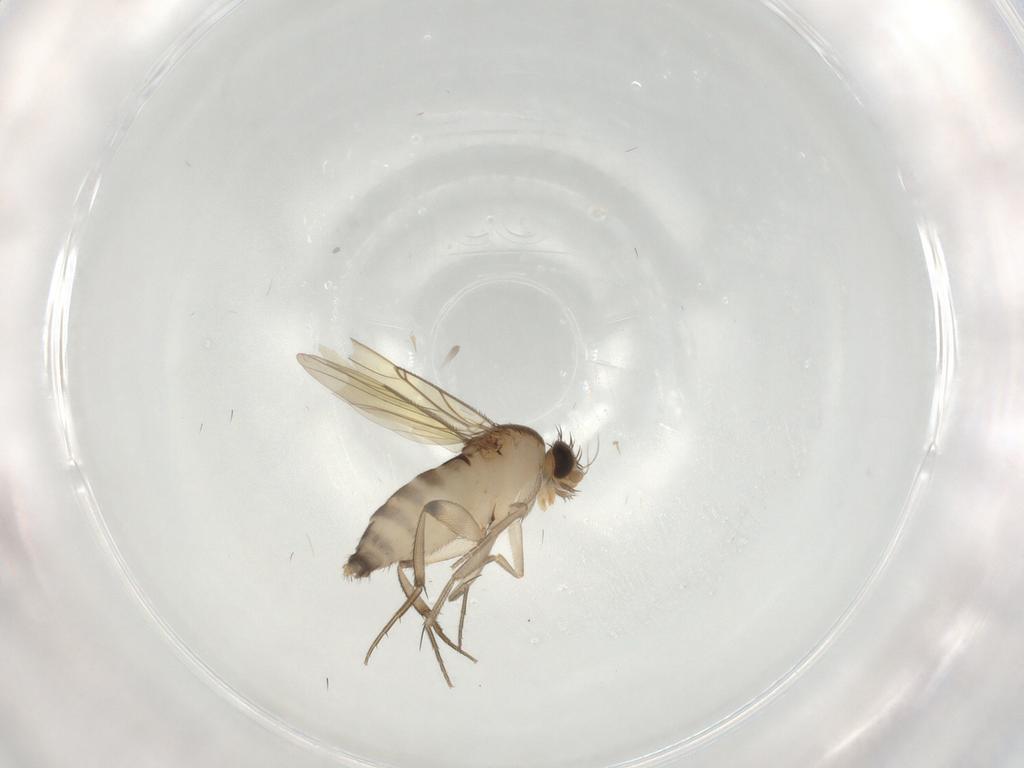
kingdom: Animalia
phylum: Arthropoda
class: Insecta
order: Diptera
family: Phoridae
